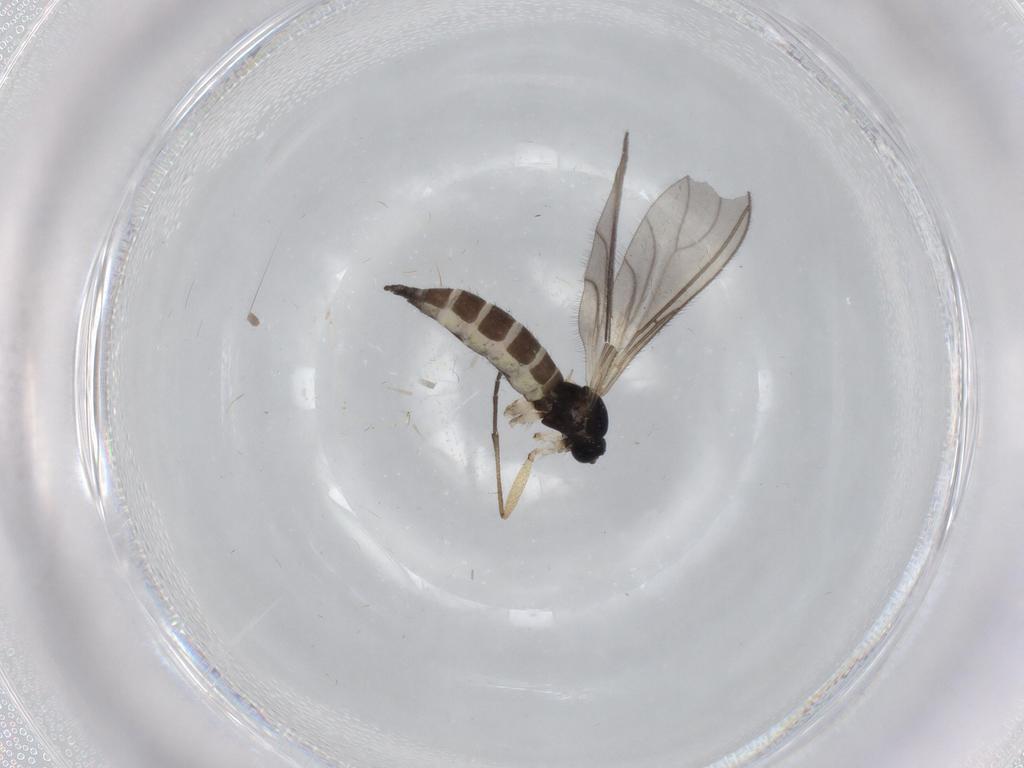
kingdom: Animalia
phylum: Arthropoda
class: Insecta
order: Diptera
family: Sciaridae
